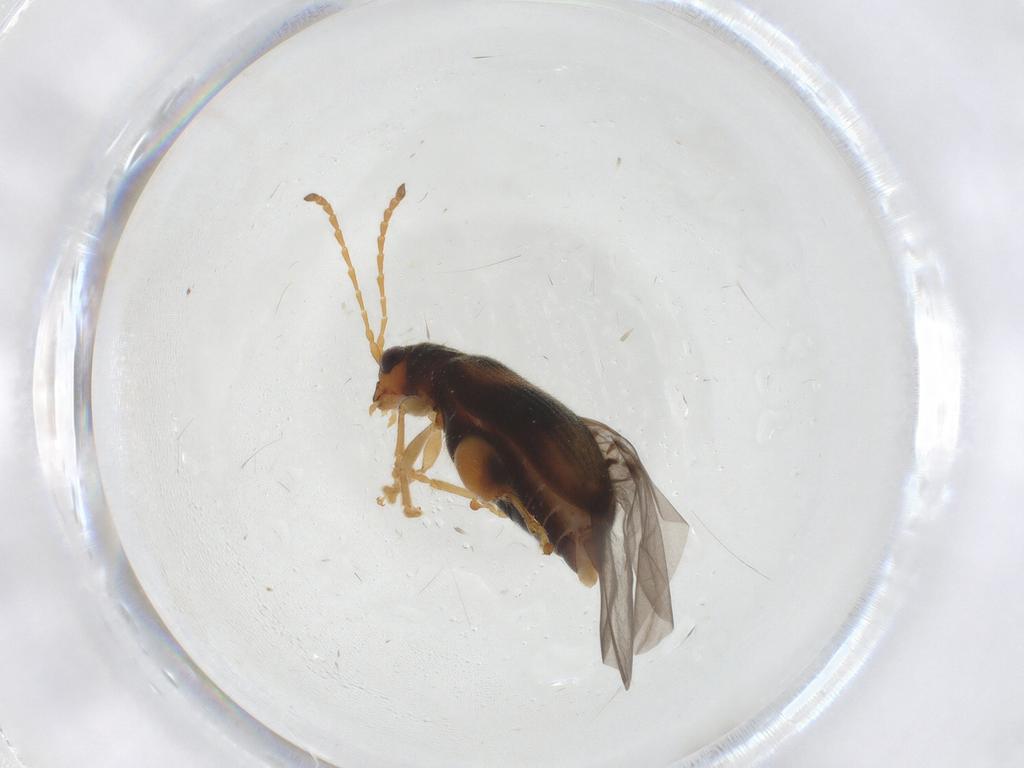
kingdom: Animalia
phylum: Arthropoda
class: Insecta
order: Coleoptera
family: Chrysomelidae
